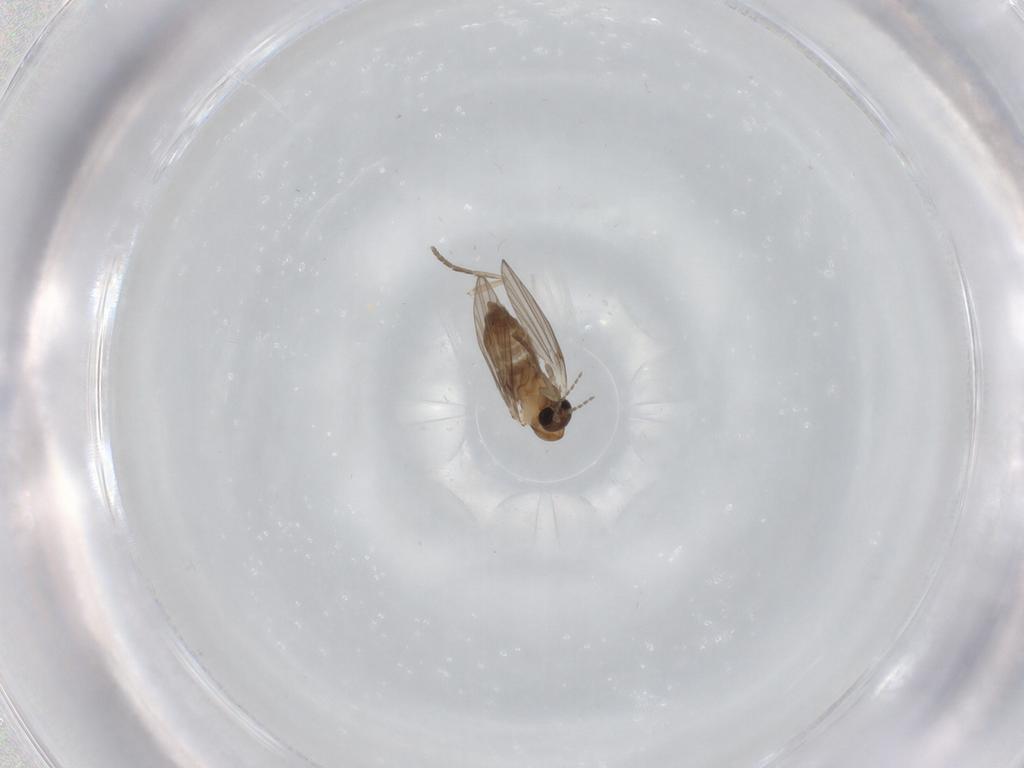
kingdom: Animalia
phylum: Arthropoda
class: Insecta
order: Diptera
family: Psychodidae
